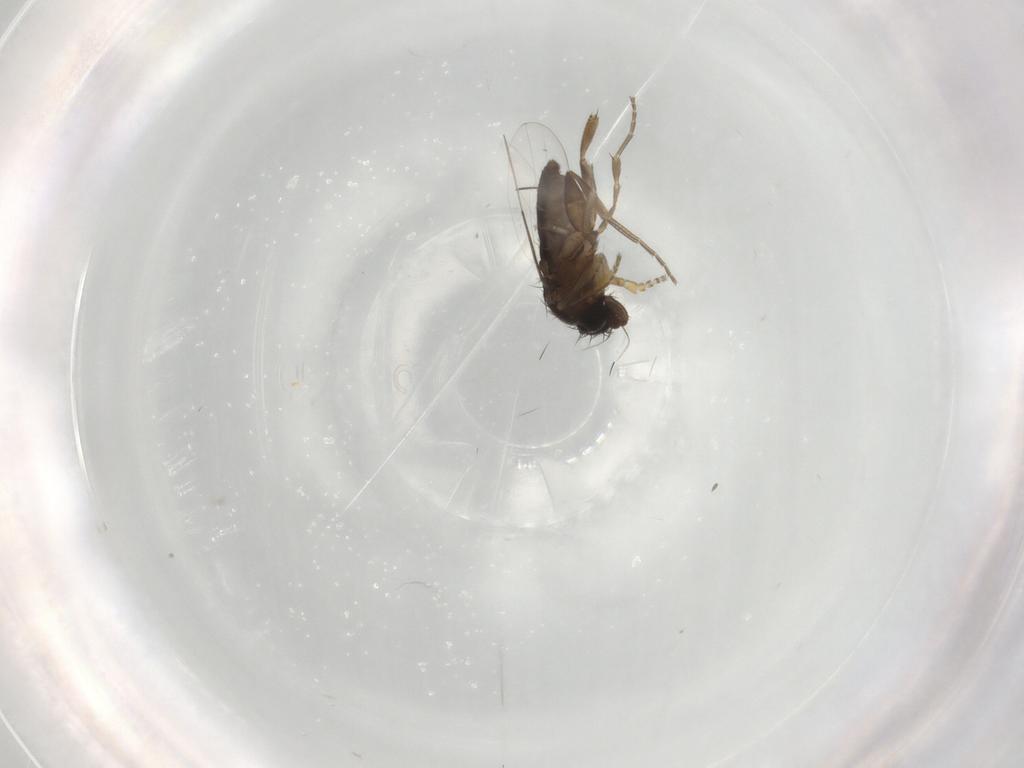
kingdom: Animalia
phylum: Arthropoda
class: Insecta
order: Diptera
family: Phoridae
